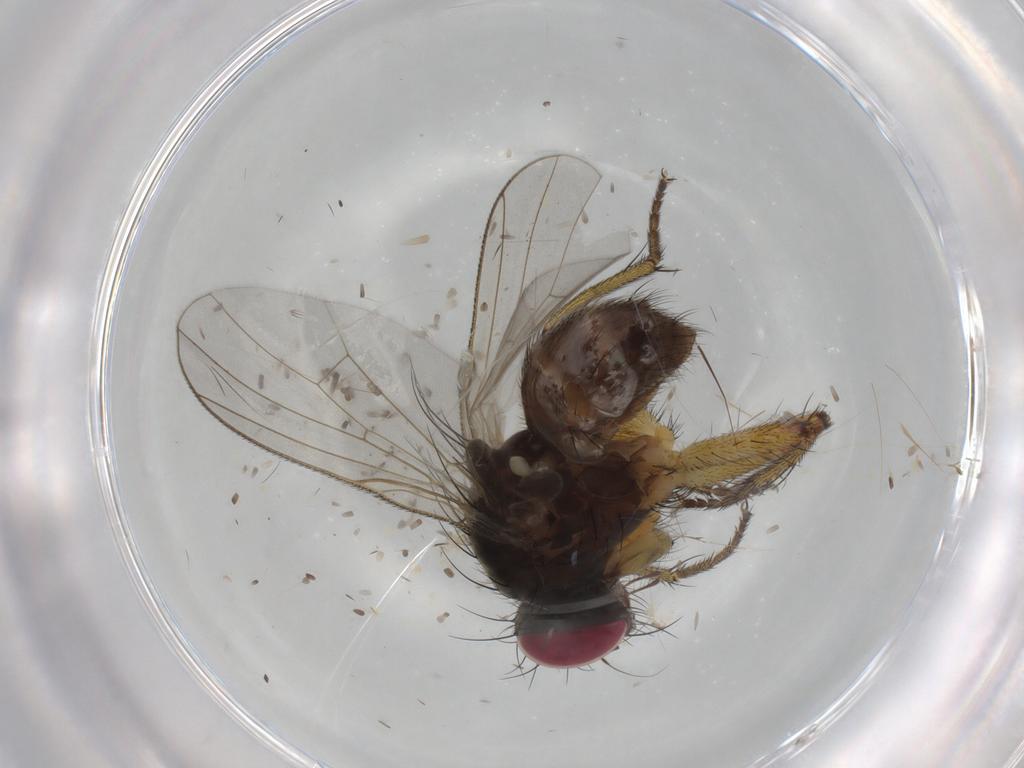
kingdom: Animalia
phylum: Arthropoda
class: Insecta
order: Diptera
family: Muscidae
